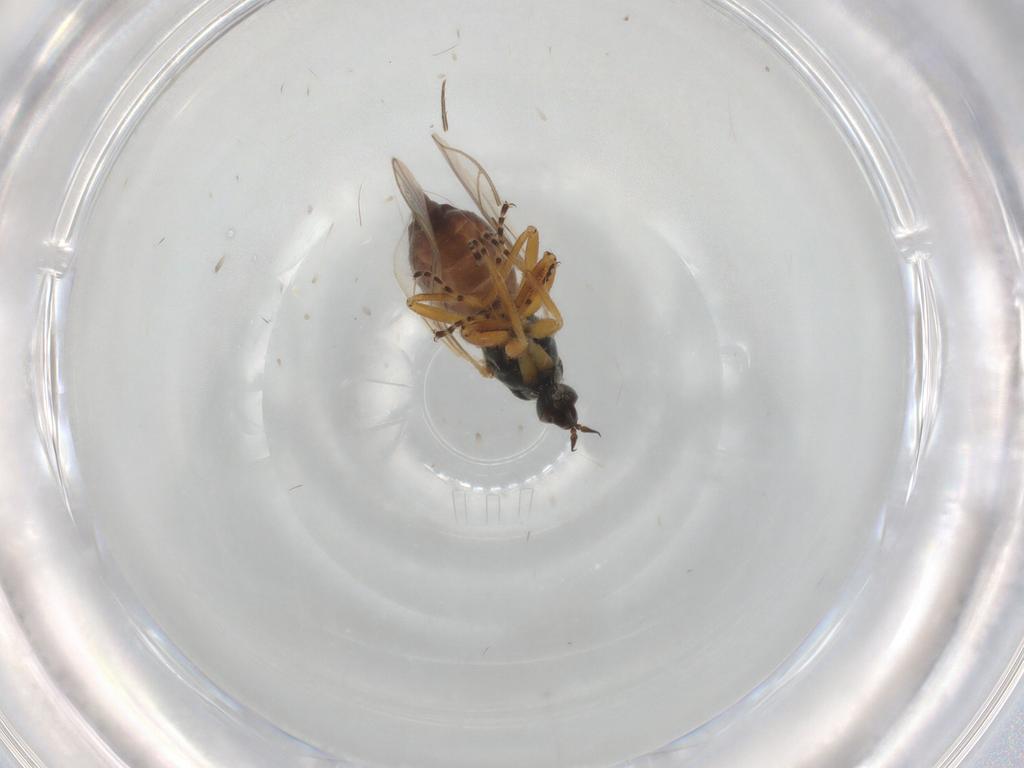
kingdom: Animalia
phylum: Arthropoda
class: Insecta
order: Diptera
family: Hybotidae
